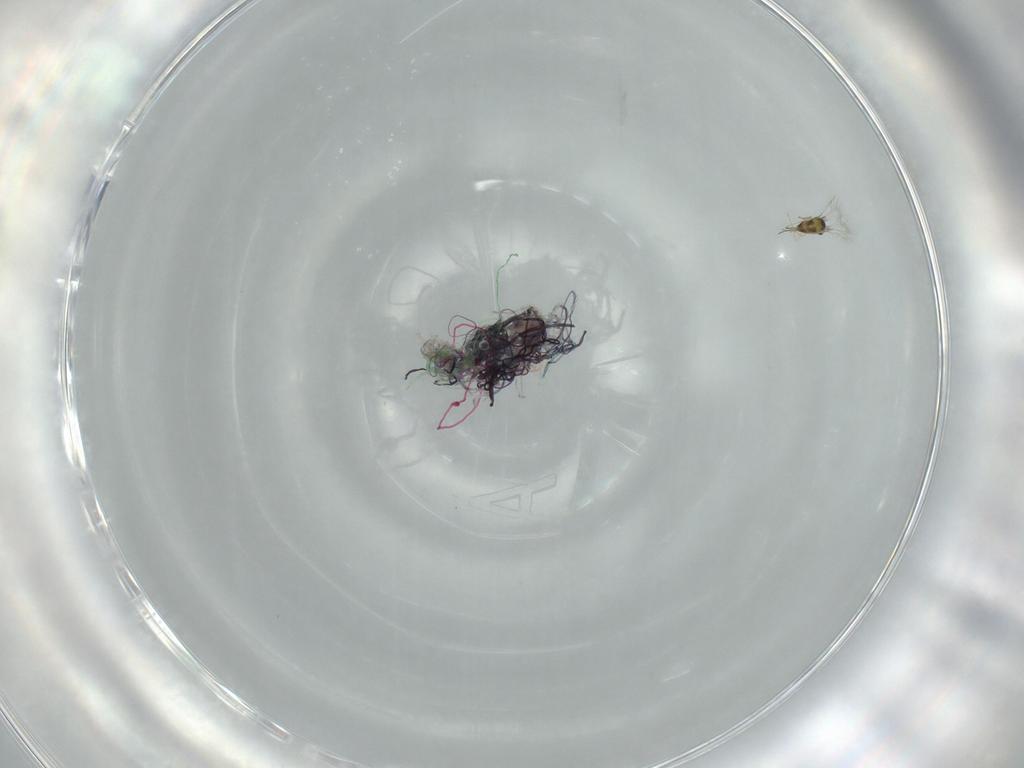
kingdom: Animalia
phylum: Arthropoda
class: Insecta
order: Hymenoptera
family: Formicidae
